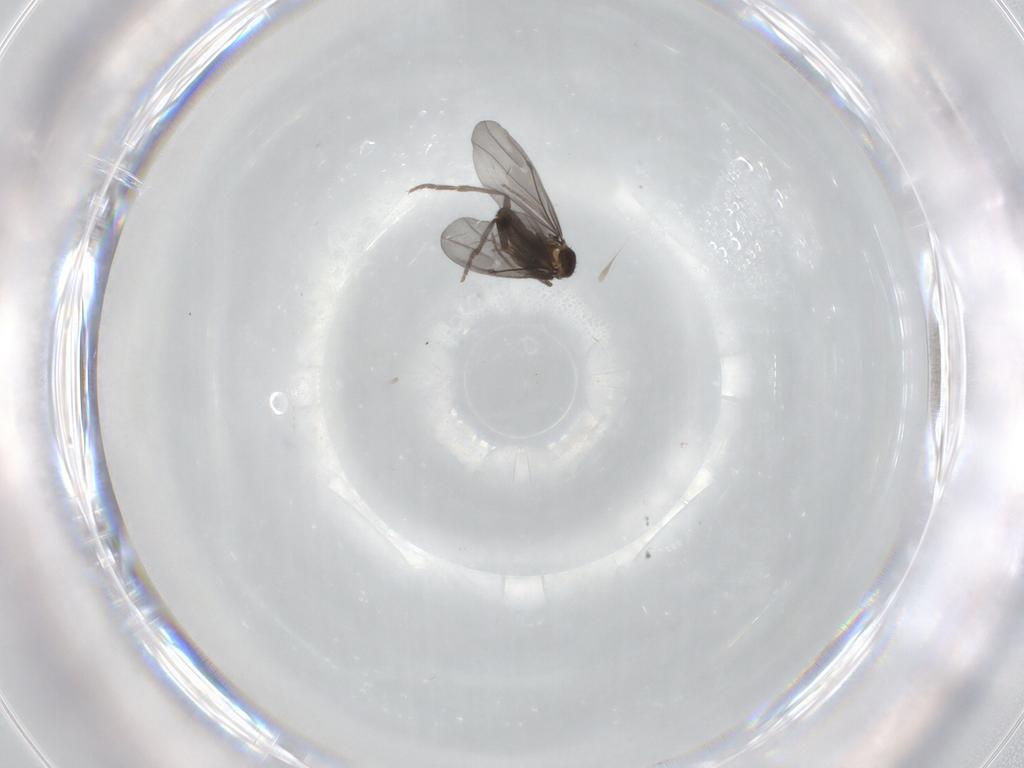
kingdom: Animalia
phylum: Arthropoda
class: Insecta
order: Diptera
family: Phoridae
